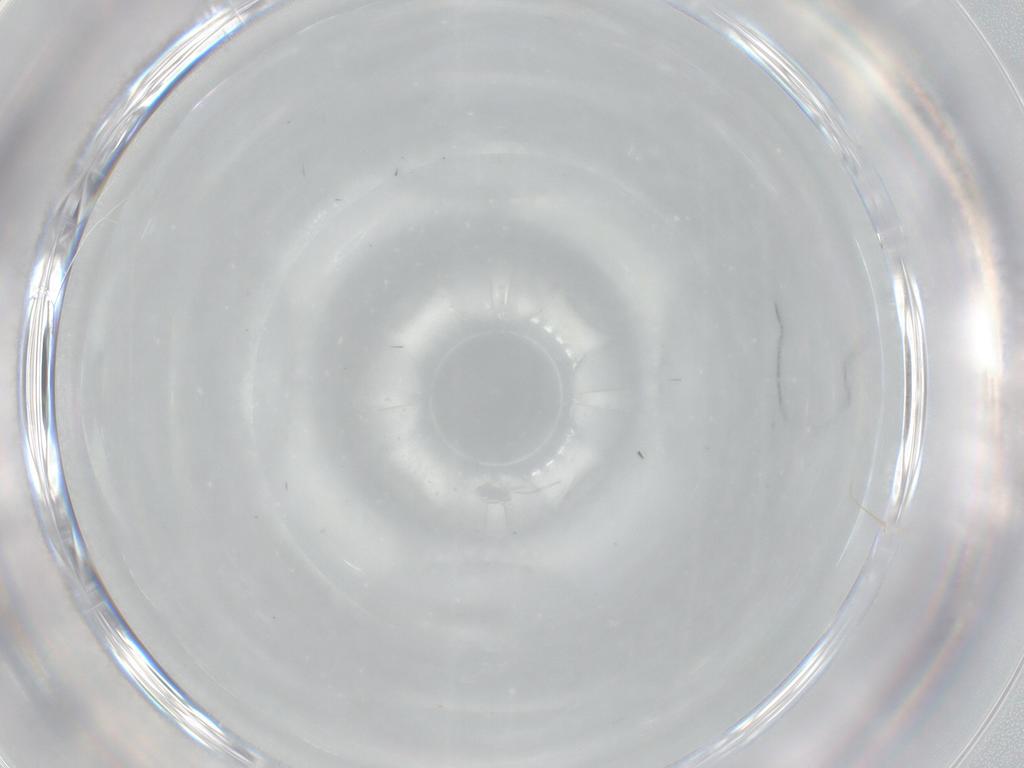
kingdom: Animalia
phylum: Arthropoda
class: Insecta
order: Diptera
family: Cecidomyiidae
